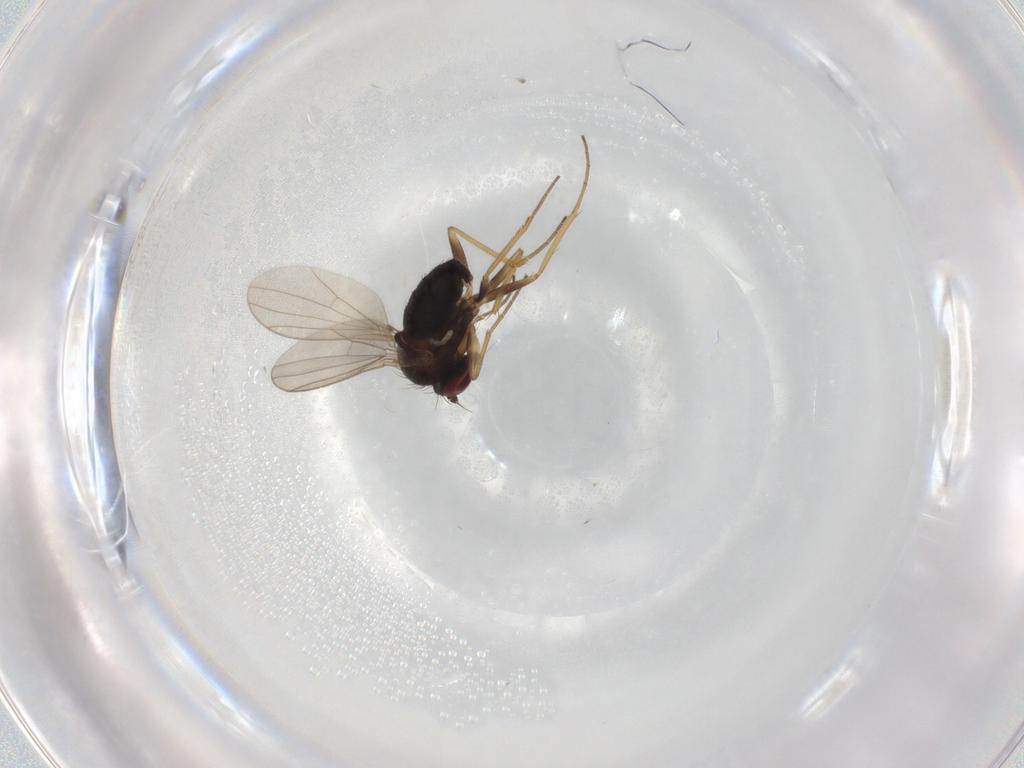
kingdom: Animalia
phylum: Arthropoda
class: Insecta
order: Diptera
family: Dolichopodidae
